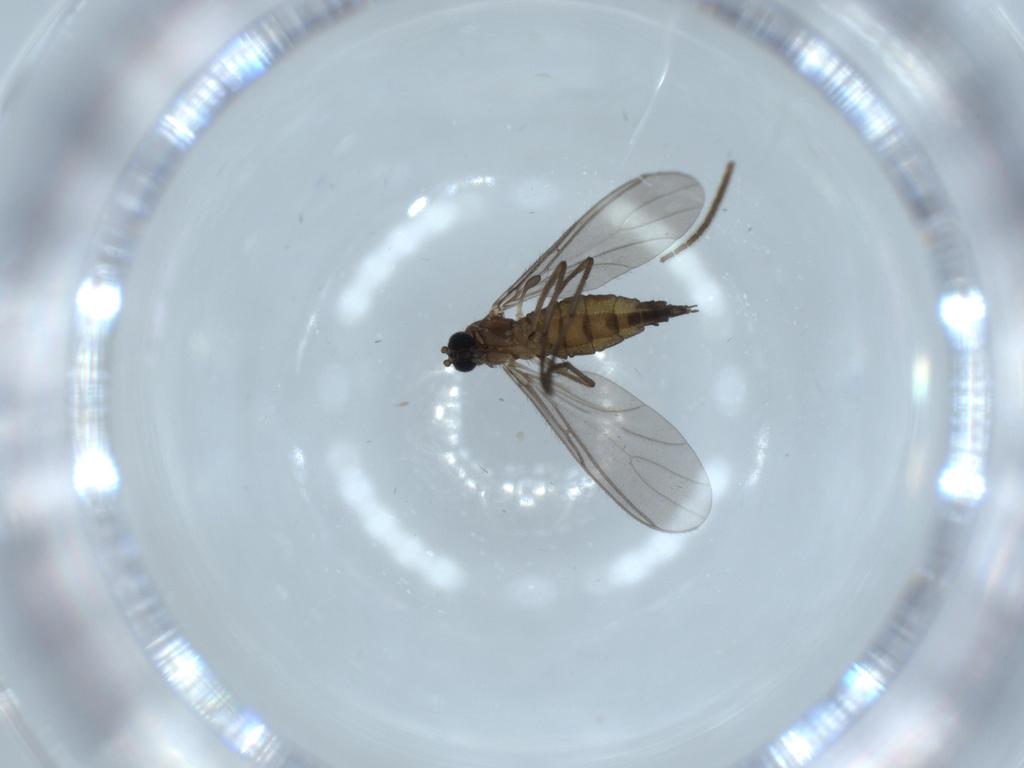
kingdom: Animalia
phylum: Arthropoda
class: Insecta
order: Diptera
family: Sciaridae
